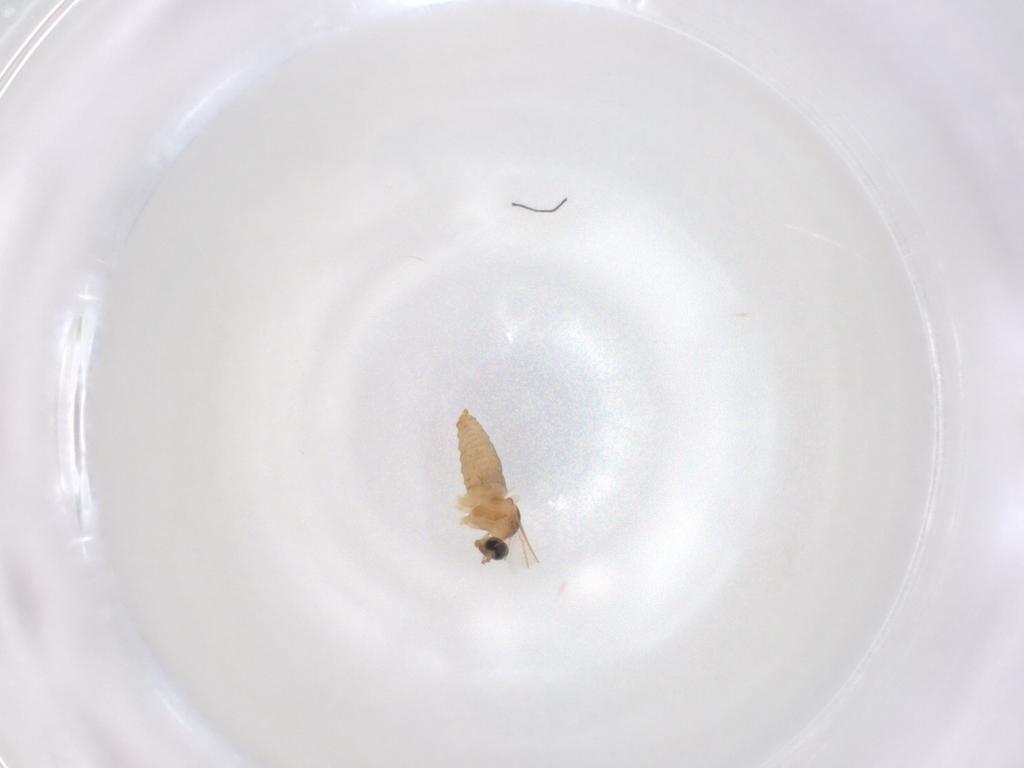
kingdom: Animalia
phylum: Arthropoda
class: Insecta
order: Diptera
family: Cecidomyiidae
